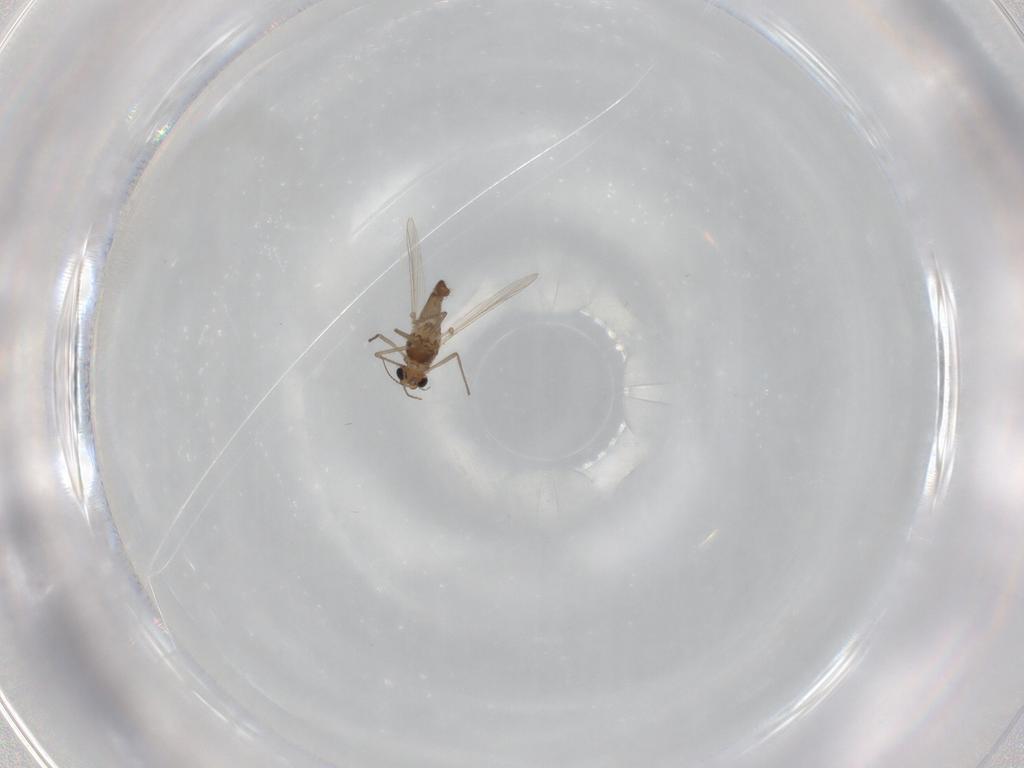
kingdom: Animalia
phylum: Arthropoda
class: Insecta
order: Diptera
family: Chironomidae
